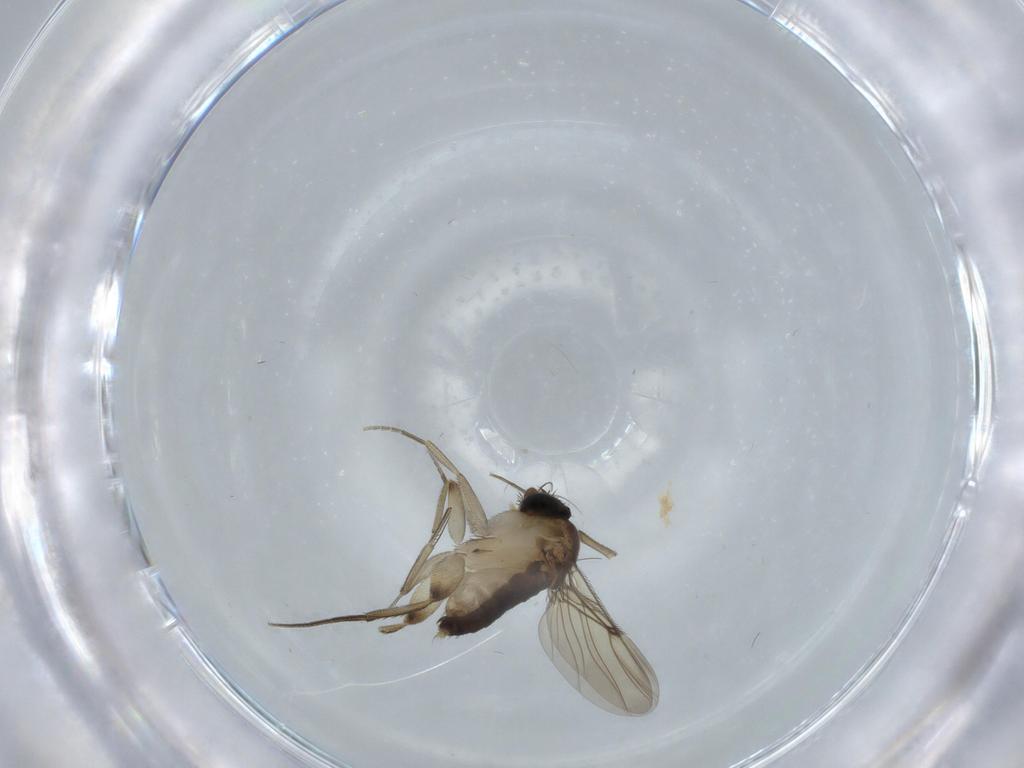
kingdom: Animalia
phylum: Arthropoda
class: Insecta
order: Diptera
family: Phoridae
